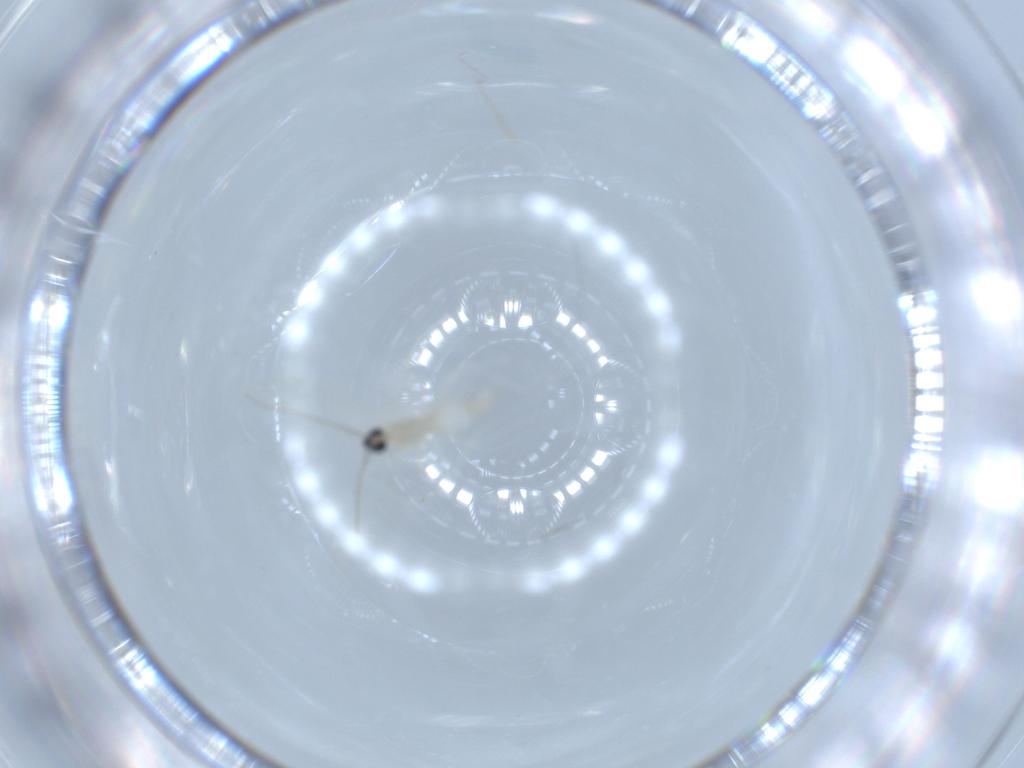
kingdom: Animalia
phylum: Arthropoda
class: Insecta
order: Diptera
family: Cecidomyiidae
